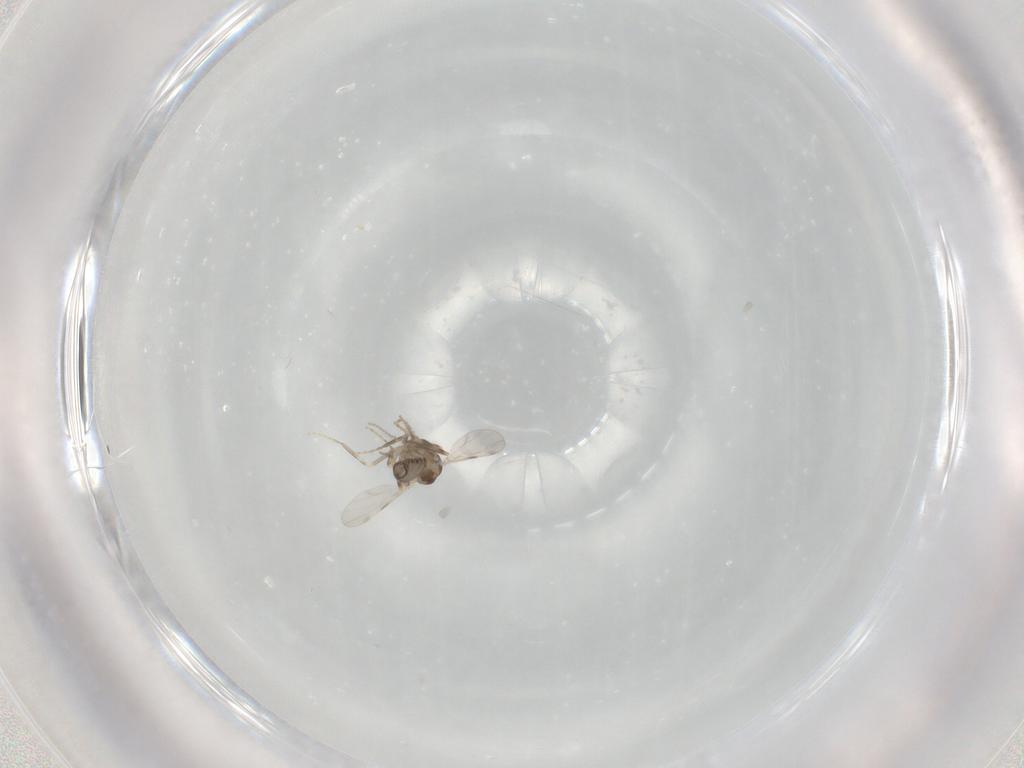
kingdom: Animalia
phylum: Arthropoda
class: Insecta
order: Diptera
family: Ceratopogonidae
